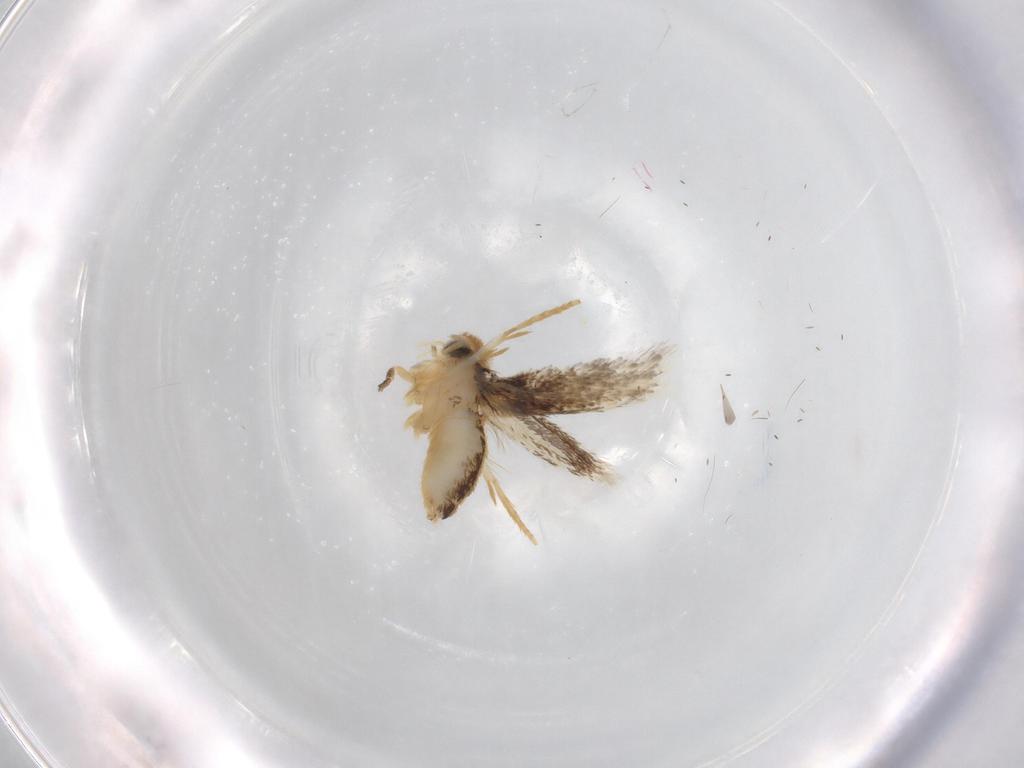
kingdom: Animalia
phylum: Arthropoda
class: Insecta
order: Lepidoptera
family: Nepticulidae
